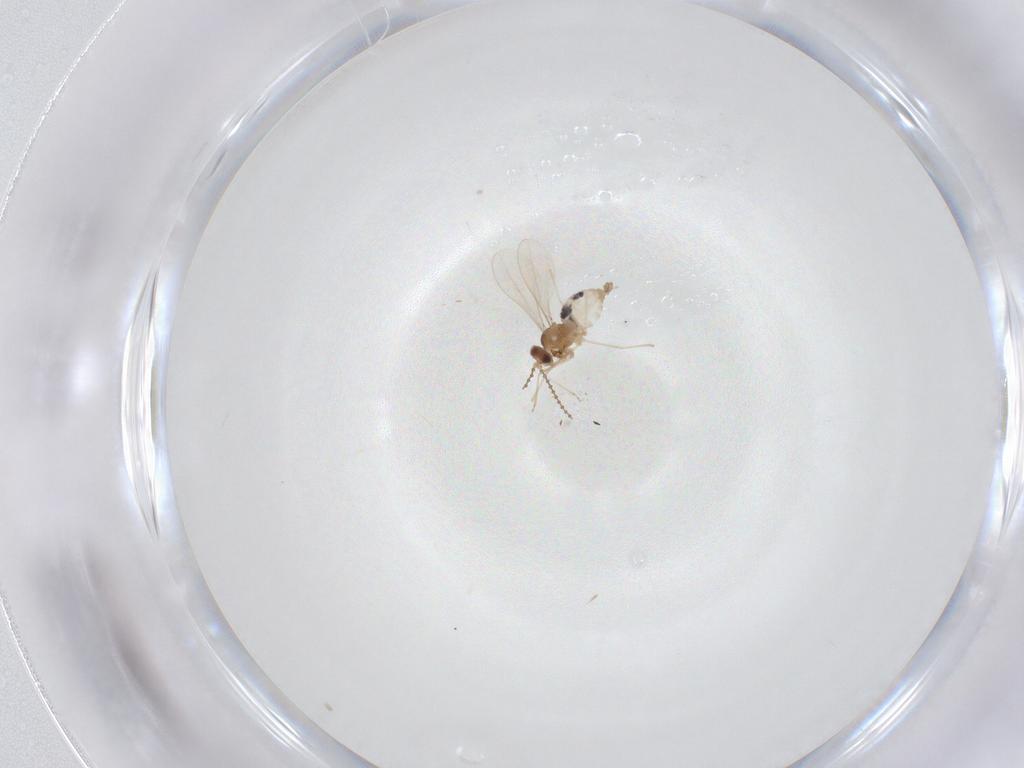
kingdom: Animalia
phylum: Arthropoda
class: Insecta
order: Diptera
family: Ceratopogonidae
